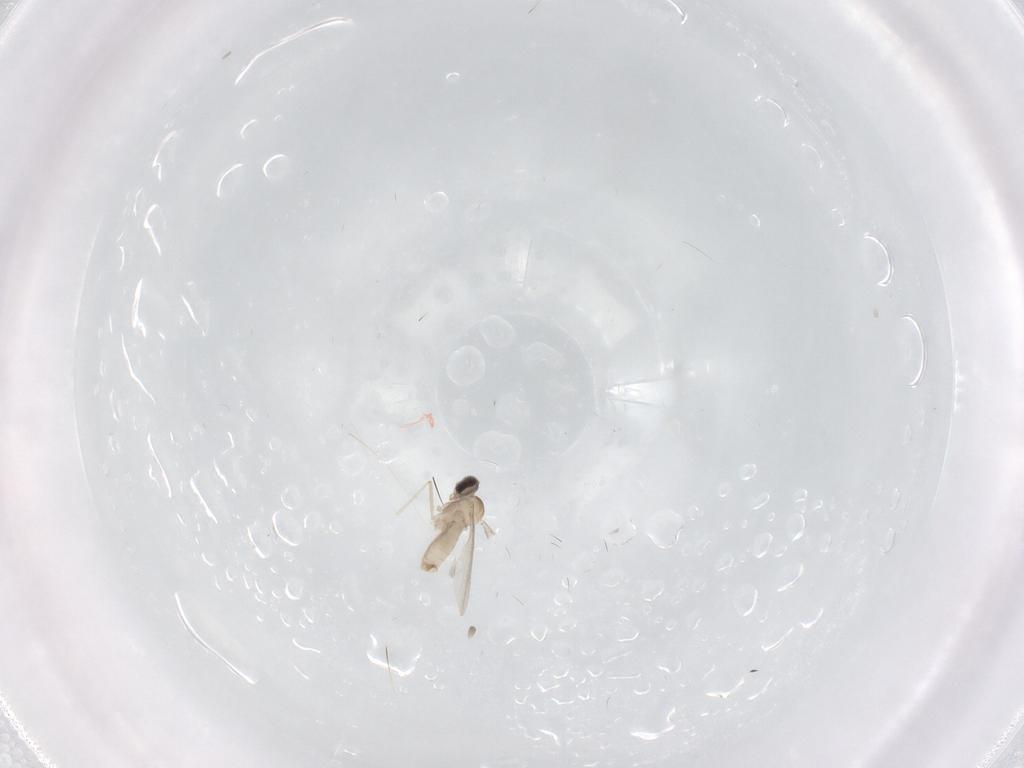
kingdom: Animalia
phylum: Arthropoda
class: Insecta
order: Diptera
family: Cecidomyiidae
